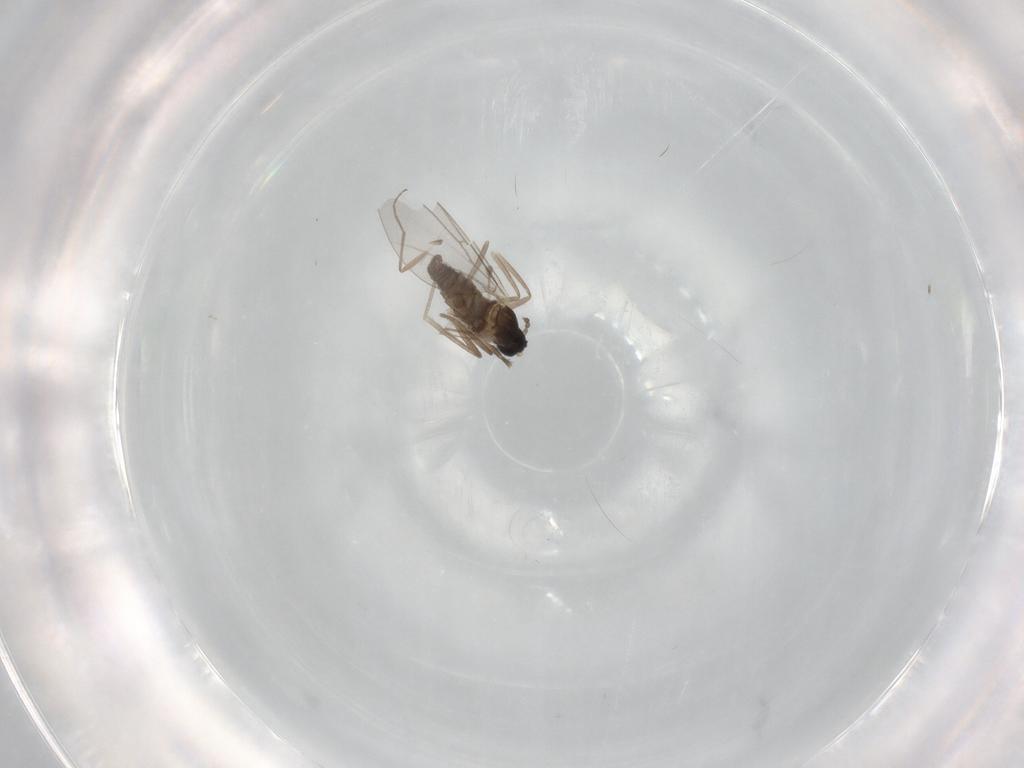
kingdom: Animalia
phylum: Arthropoda
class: Insecta
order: Diptera
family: Cecidomyiidae
